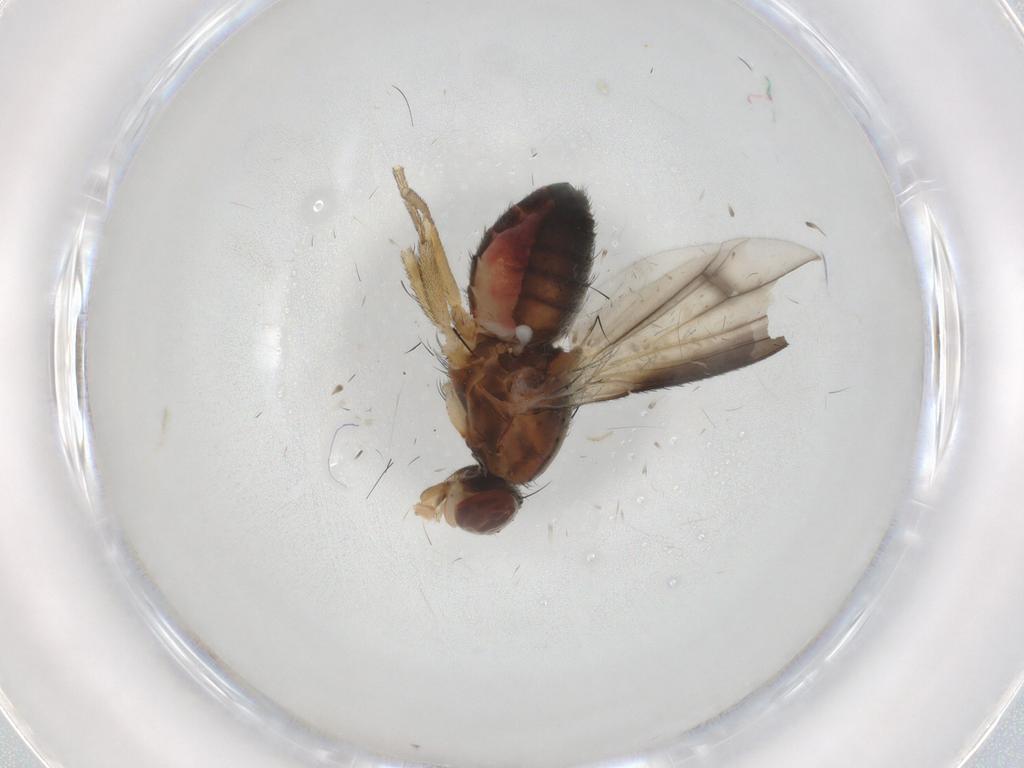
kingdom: Animalia
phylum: Arthropoda
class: Insecta
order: Diptera
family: Heleomyzidae
